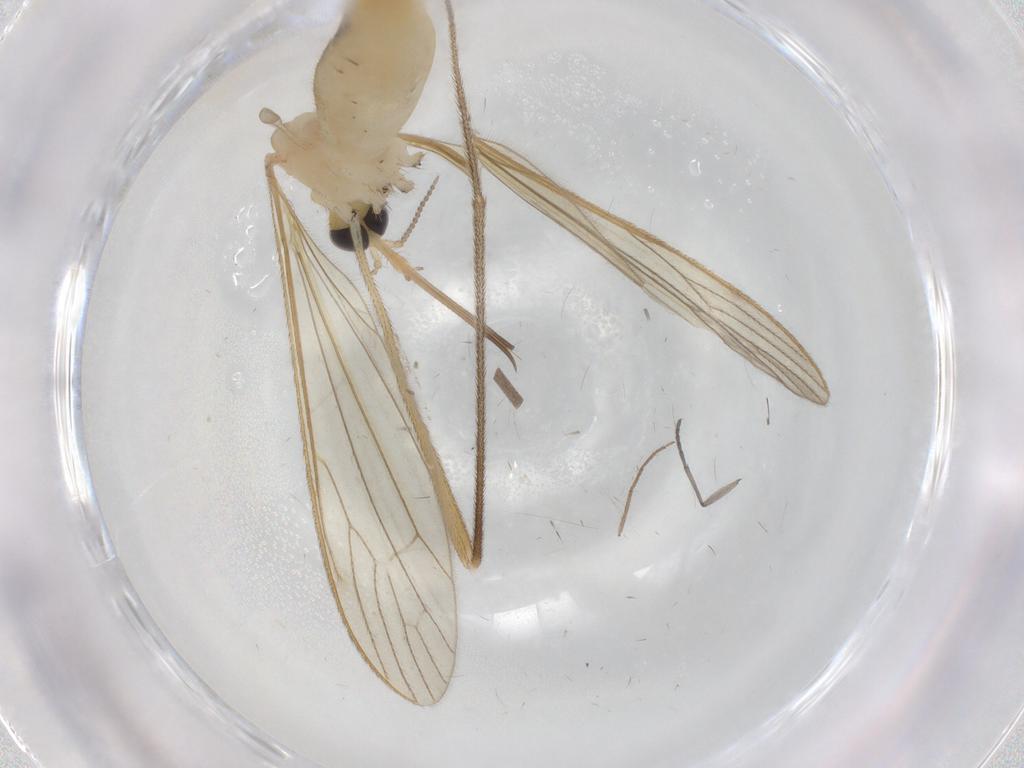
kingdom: Animalia
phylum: Arthropoda
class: Insecta
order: Diptera
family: Limoniidae
